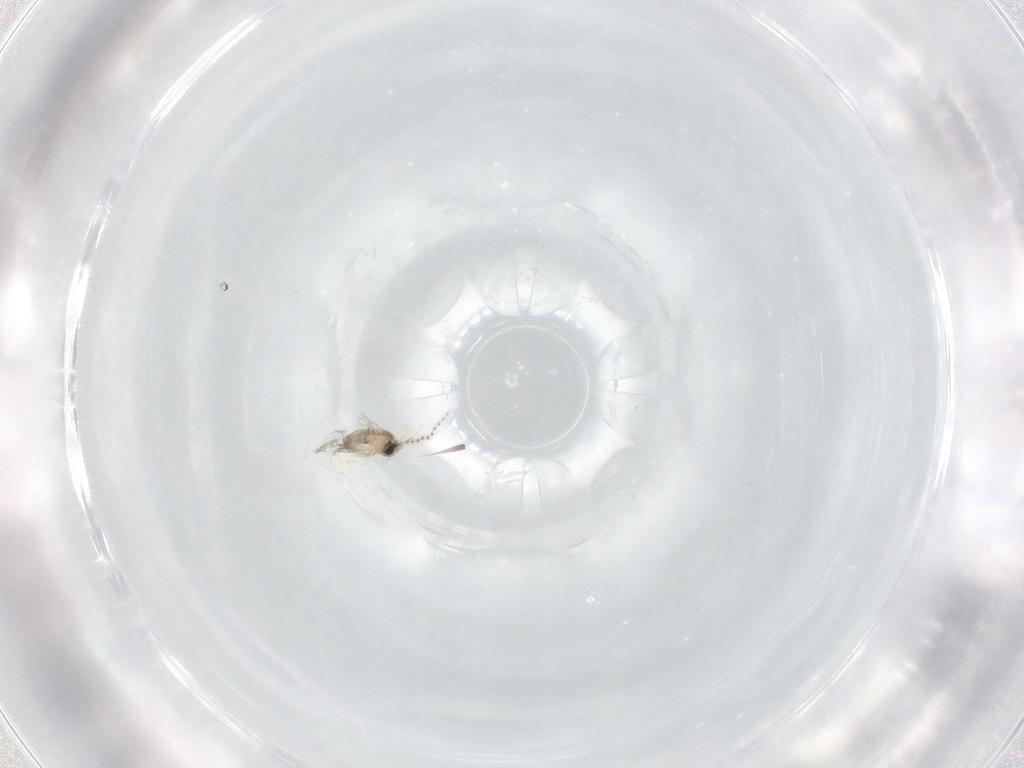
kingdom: Animalia
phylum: Arthropoda
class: Insecta
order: Diptera
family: Cecidomyiidae
